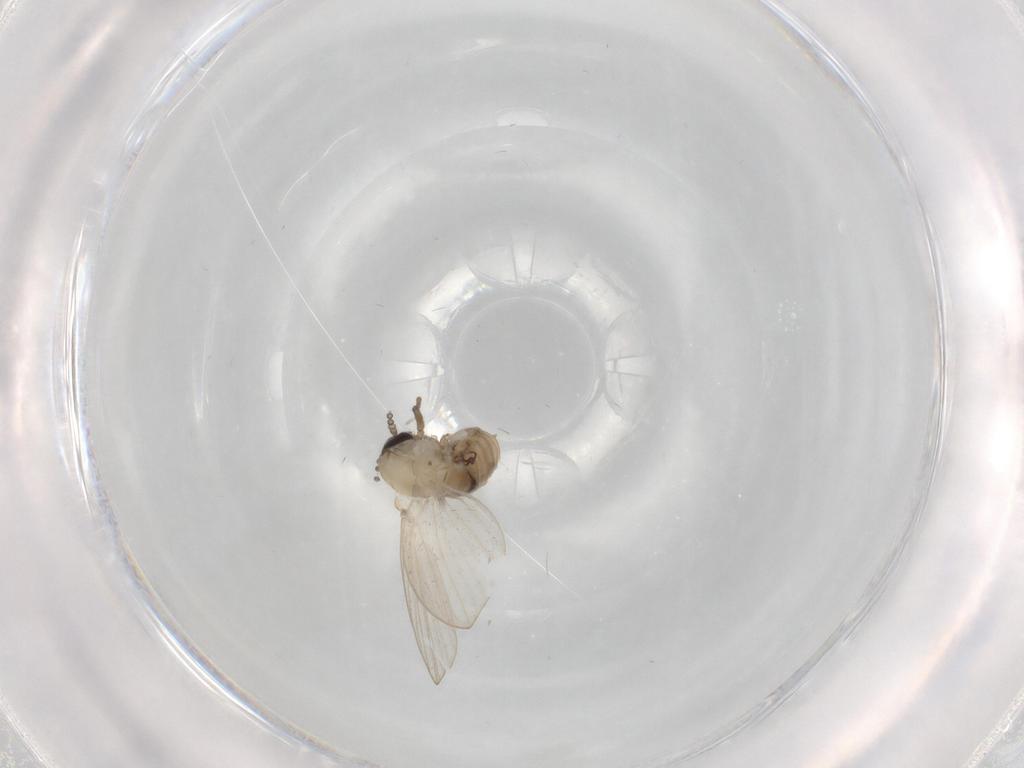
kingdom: Animalia
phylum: Arthropoda
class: Insecta
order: Diptera
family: Psychodidae
